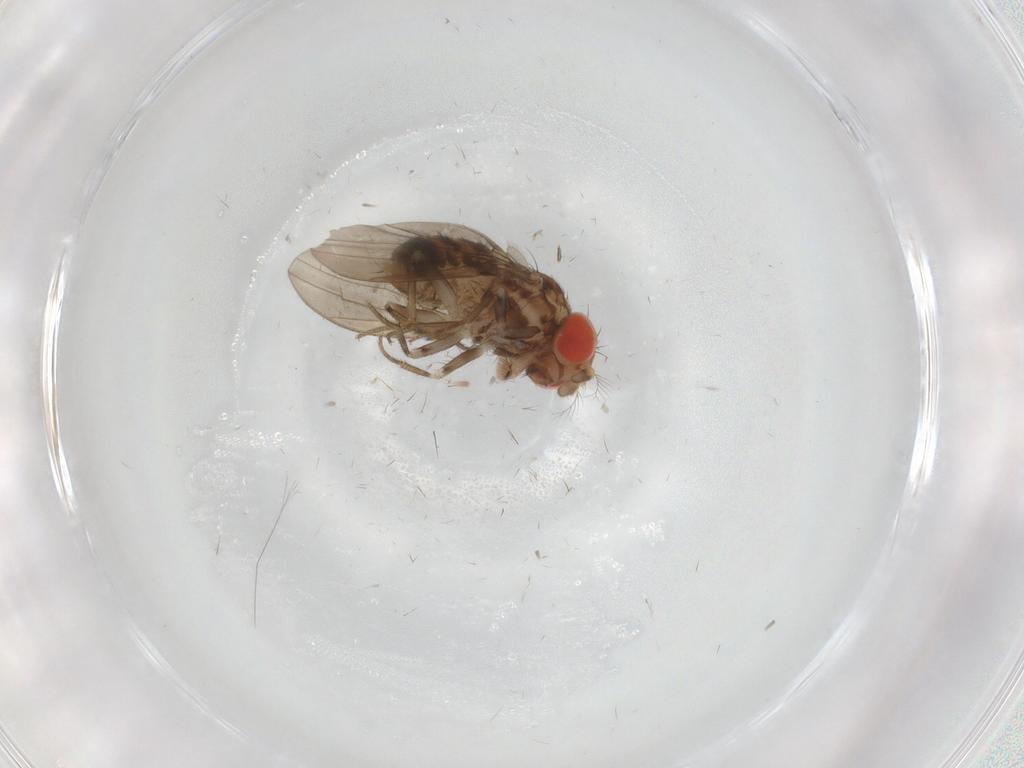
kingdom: Animalia
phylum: Arthropoda
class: Insecta
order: Diptera
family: Drosophilidae
